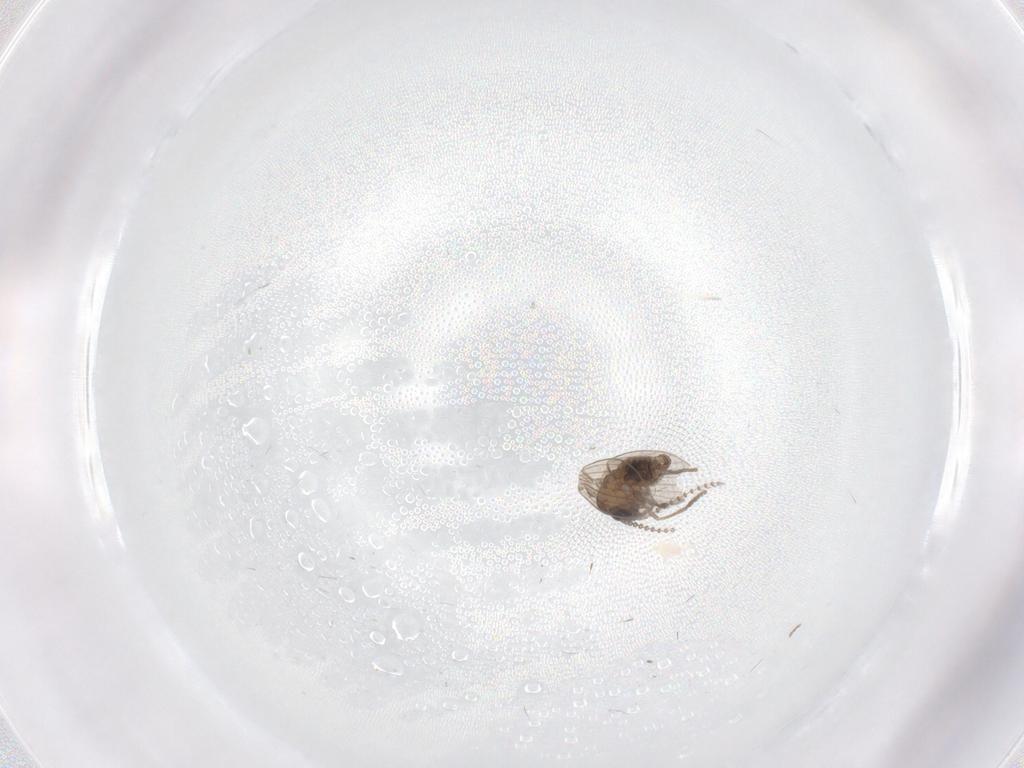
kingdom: Animalia
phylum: Arthropoda
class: Insecta
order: Diptera
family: Psychodidae
